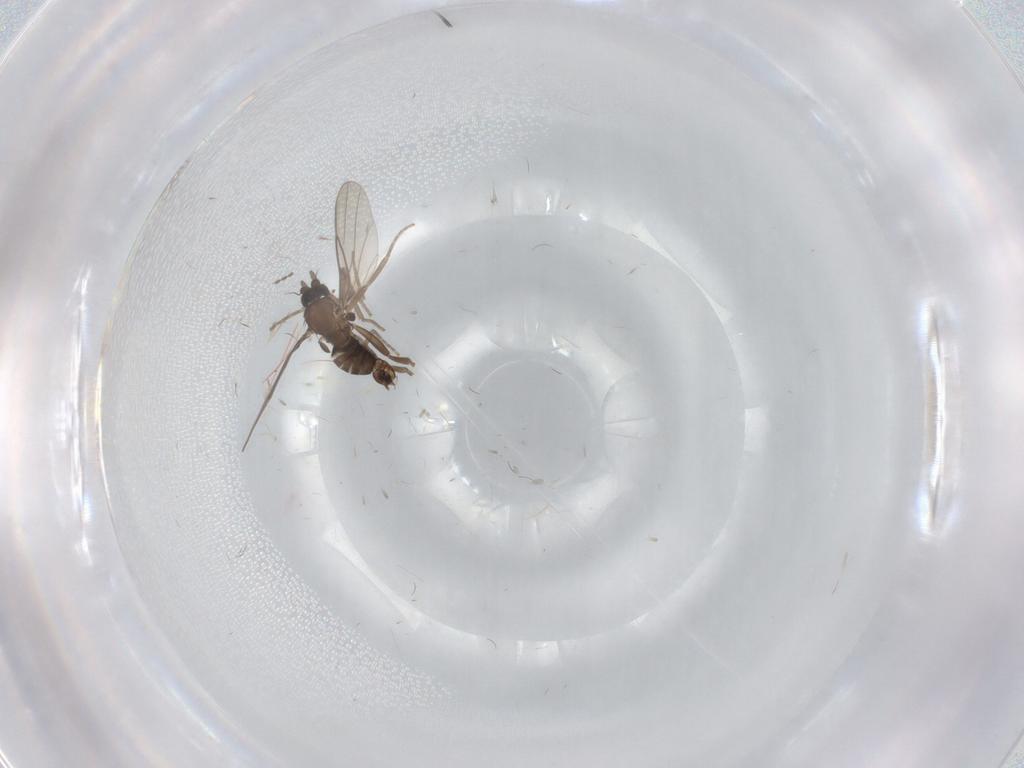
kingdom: Animalia
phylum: Arthropoda
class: Insecta
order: Diptera
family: Phoridae
